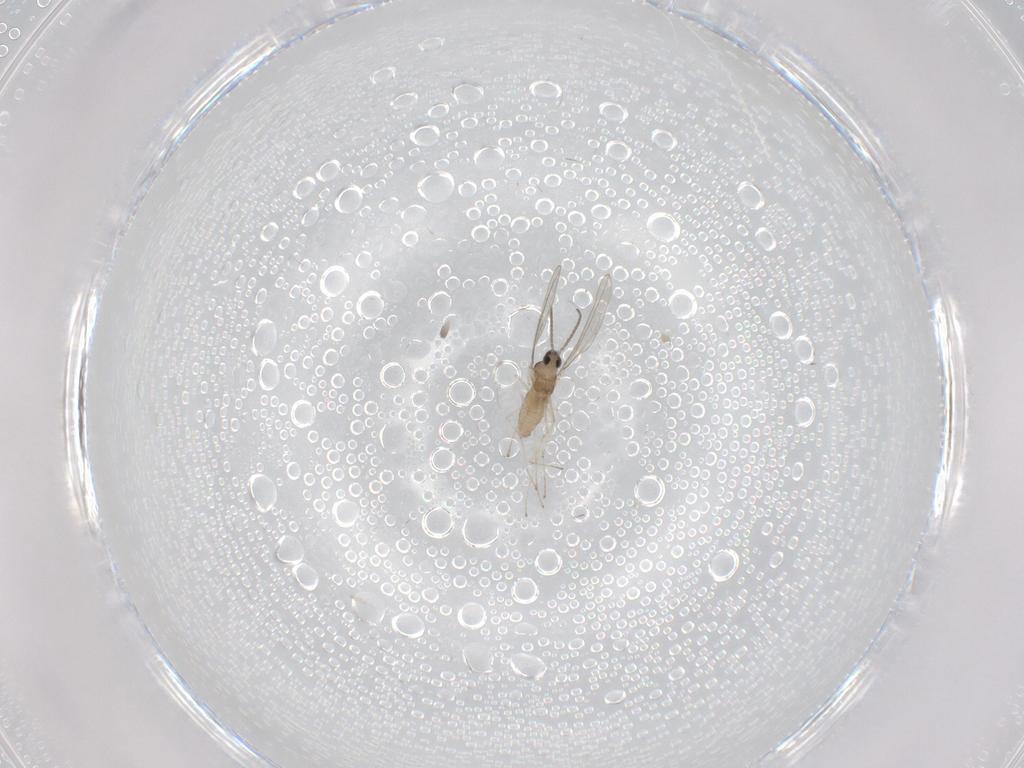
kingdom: Animalia
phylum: Arthropoda
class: Insecta
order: Diptera
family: Cecidomyiidae
